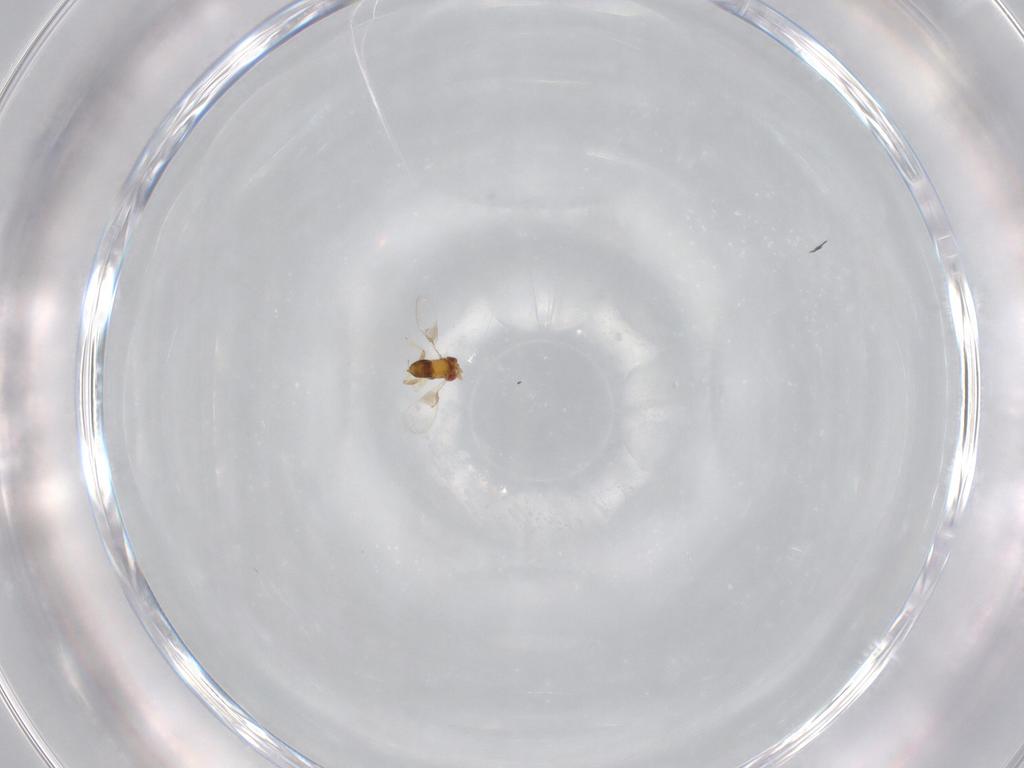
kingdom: Animalia
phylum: Arthropoda
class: Insecta
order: Hymenoptera
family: Trichogrammatidae
